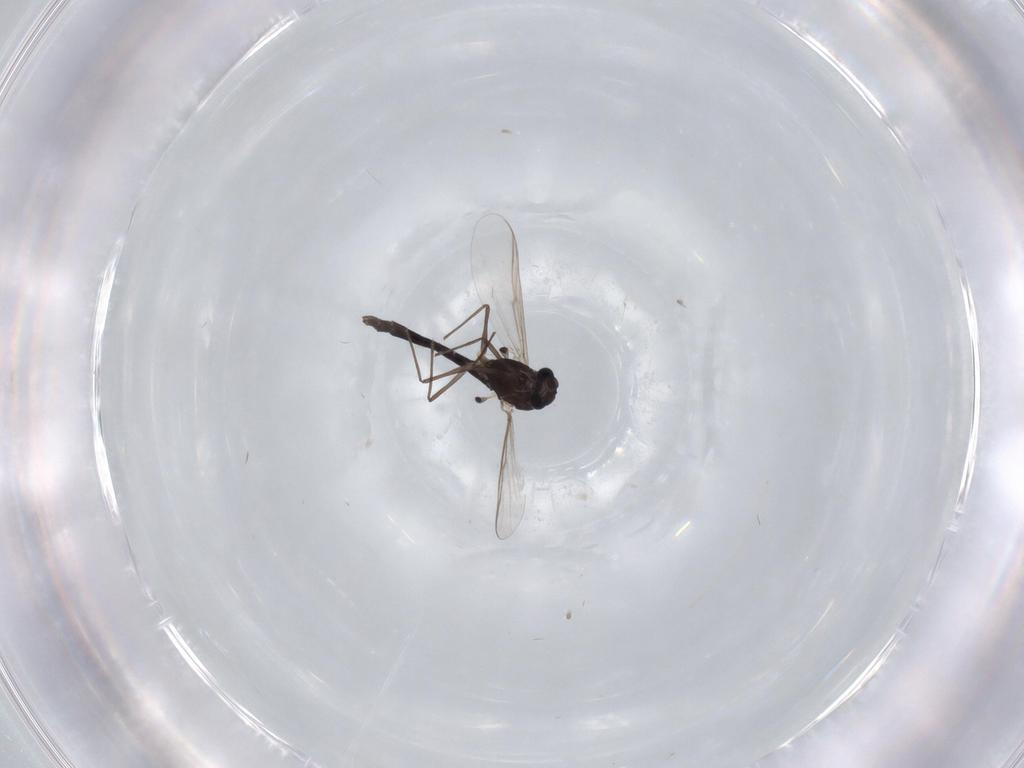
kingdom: Animalia
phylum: Arthropoda
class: Insecta
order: Diptera
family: Chironomidae
